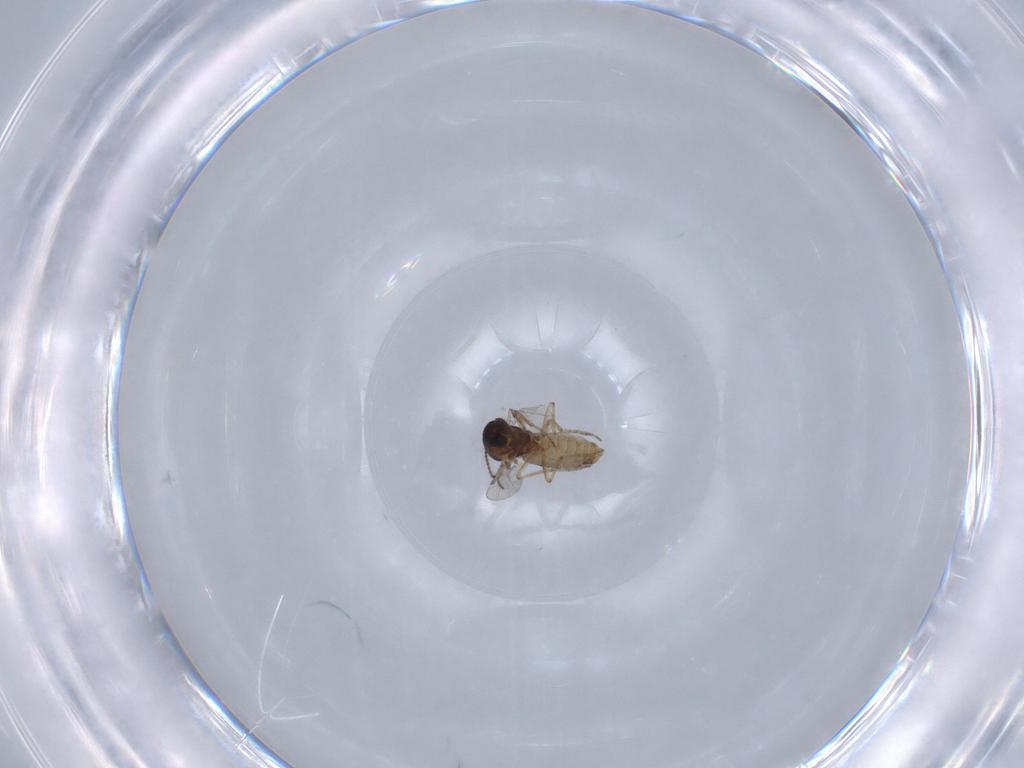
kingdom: Animalia
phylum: Arthropoda
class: Insecta
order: Diptera
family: Ceratopogonidae
